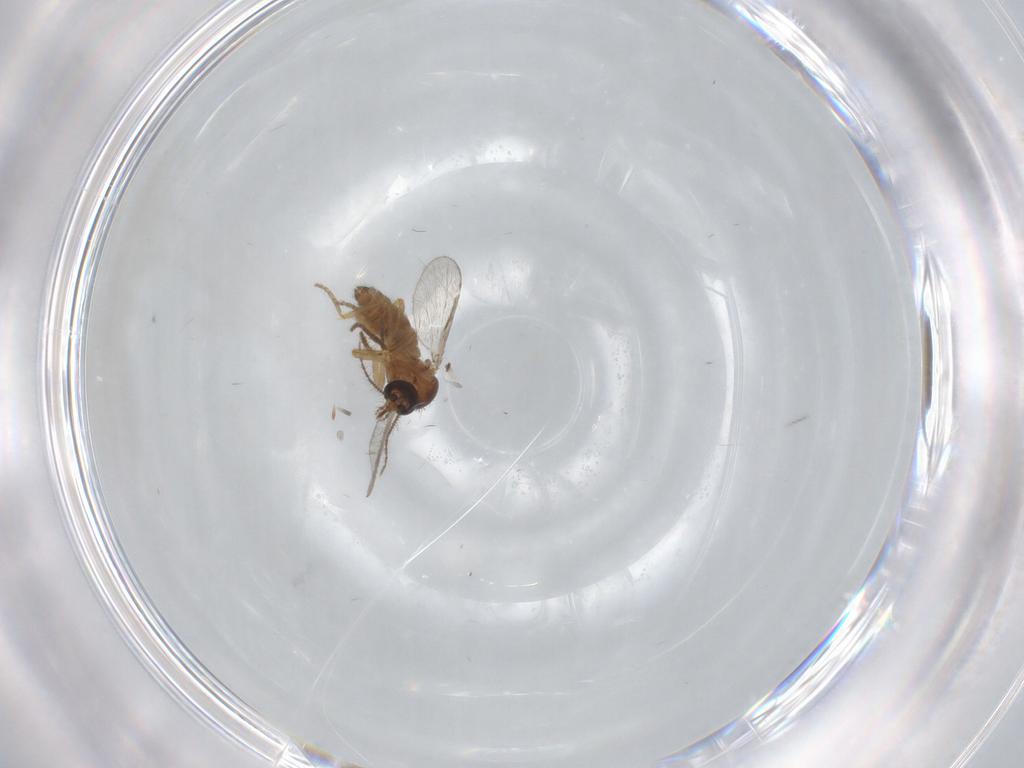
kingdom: Animalia
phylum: Arthropoda
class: Insecta
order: Diptera
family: Ceratopogonidae
